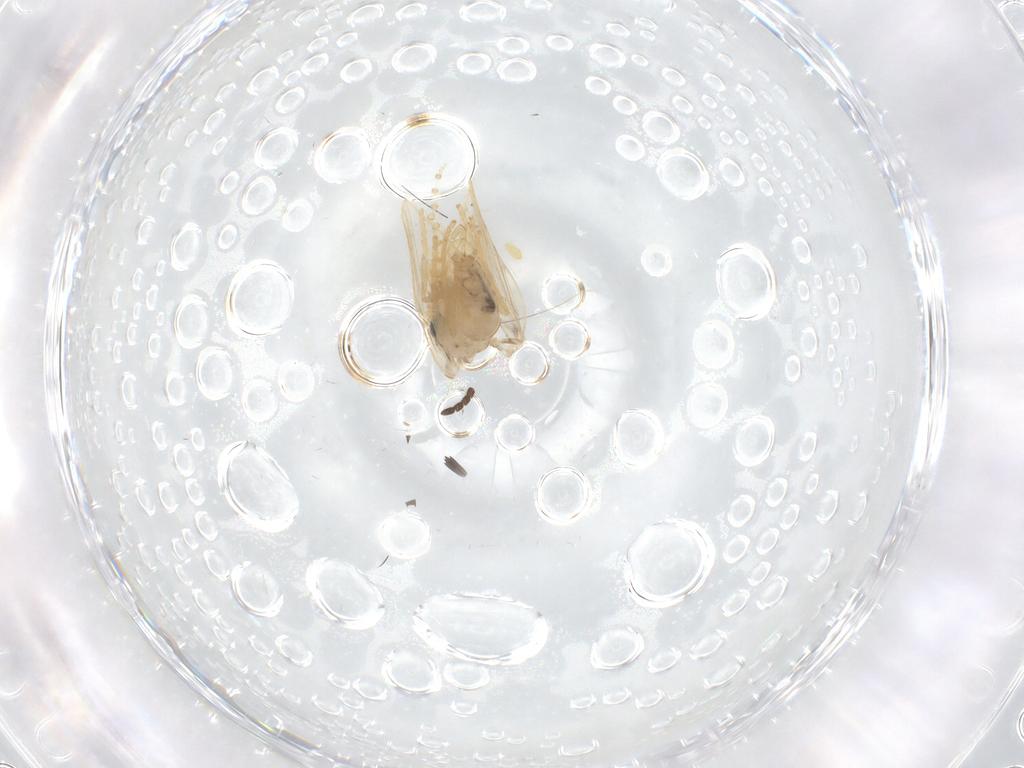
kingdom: Animalia
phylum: Arthropoda
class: Insecta
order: Diptera
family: Psychodidae
